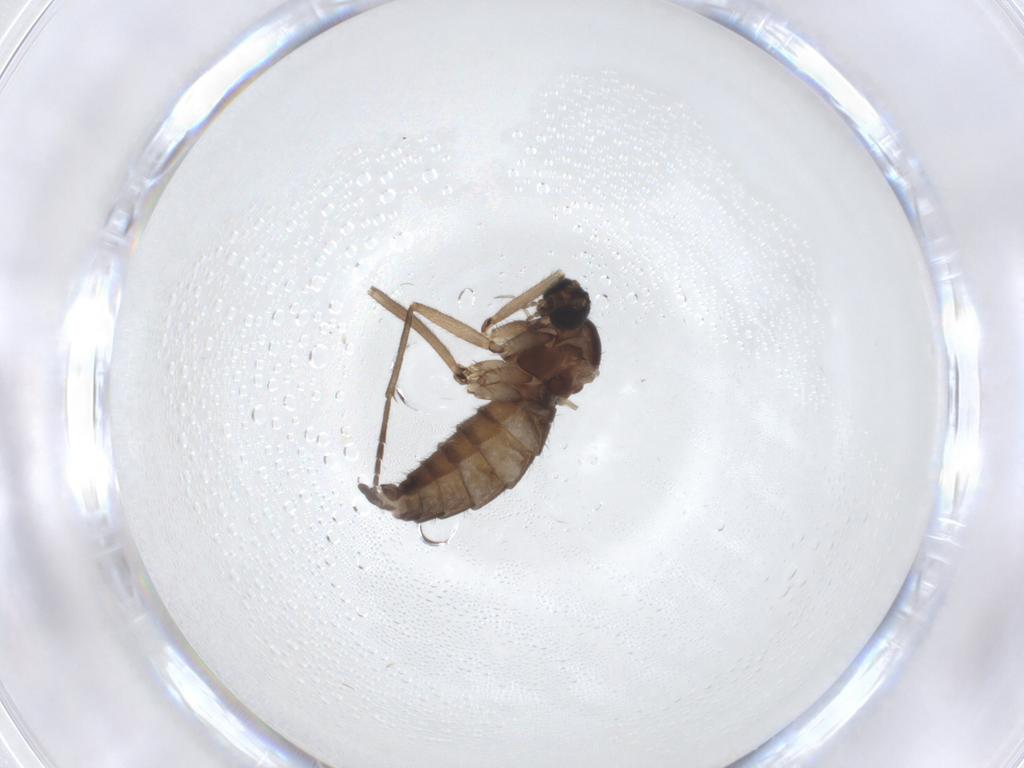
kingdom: Animalia
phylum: Arthropoda
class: Insecta
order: Diptera
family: Sciaridae
